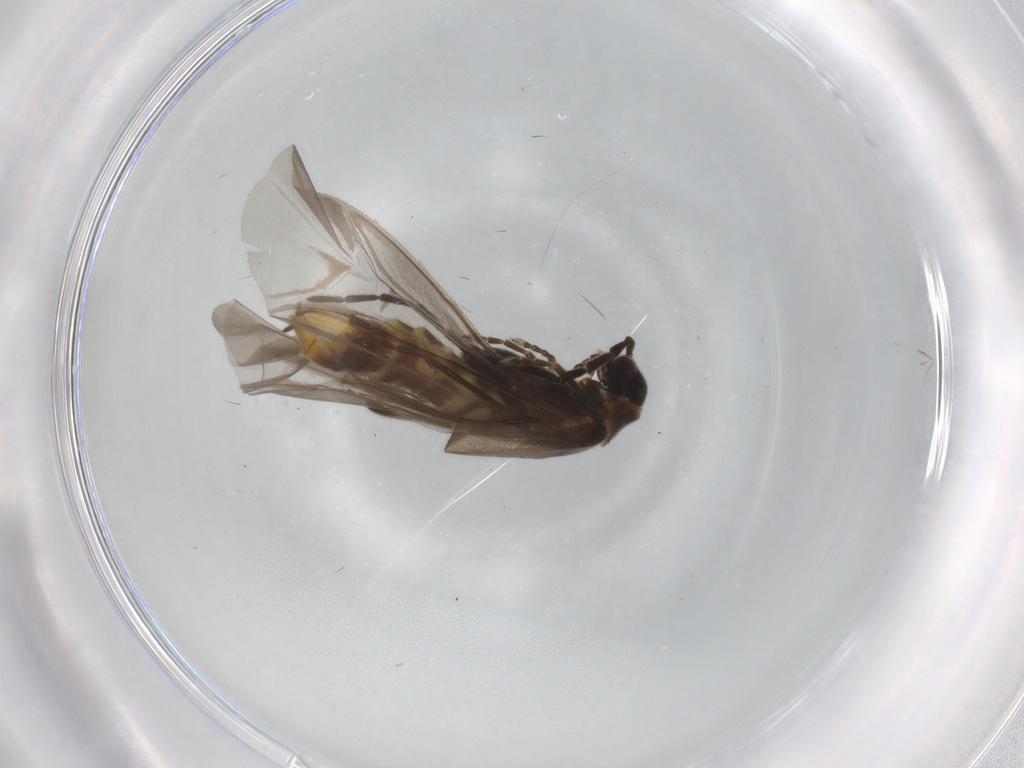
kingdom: Animalia
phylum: Arthropoda
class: Insecta
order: Coleoptera
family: Cantharidae
